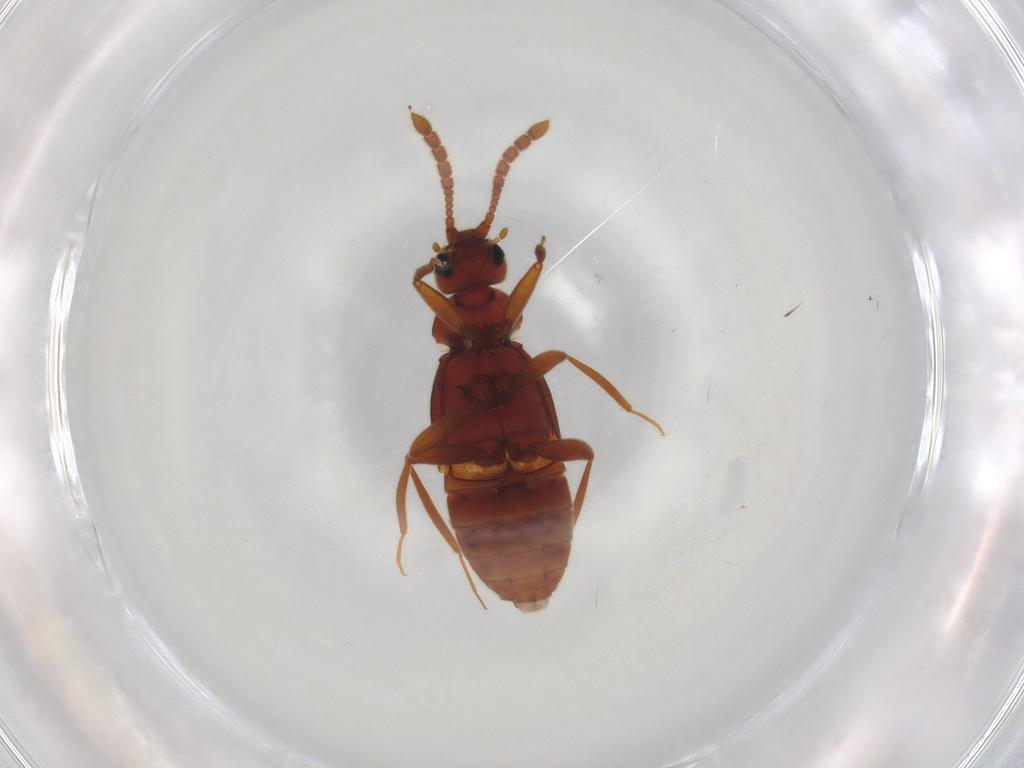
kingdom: Animalia
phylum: Arthropoda
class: Insecta
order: Coleoptera
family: Staphylinidae
